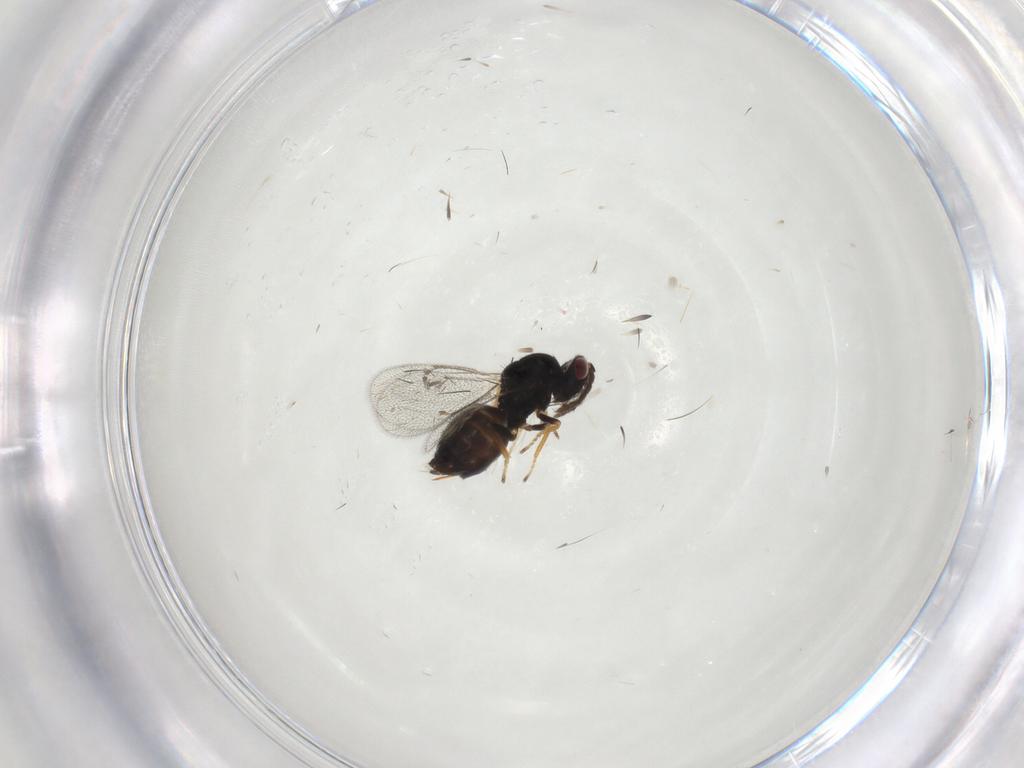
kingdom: Animalia
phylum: Arthropoda
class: Insecta
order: Hymenoptera
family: Eulophidae
